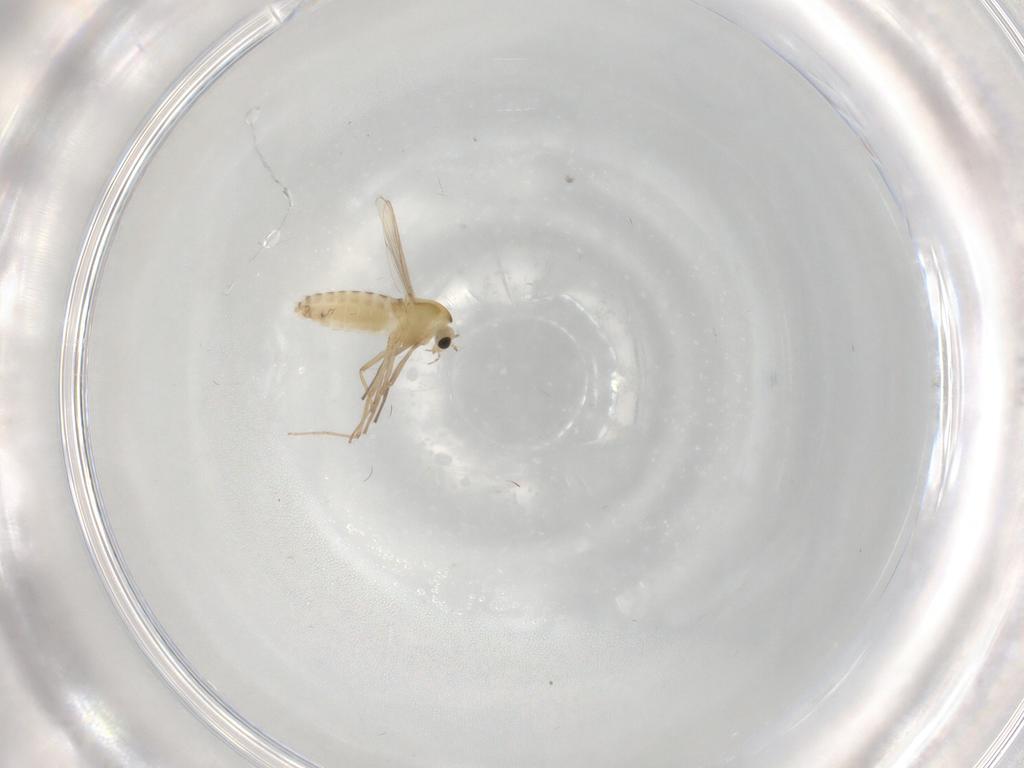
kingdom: Animalia
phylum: Arthropoda
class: Insecta
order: Diptera
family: Chironomidae
